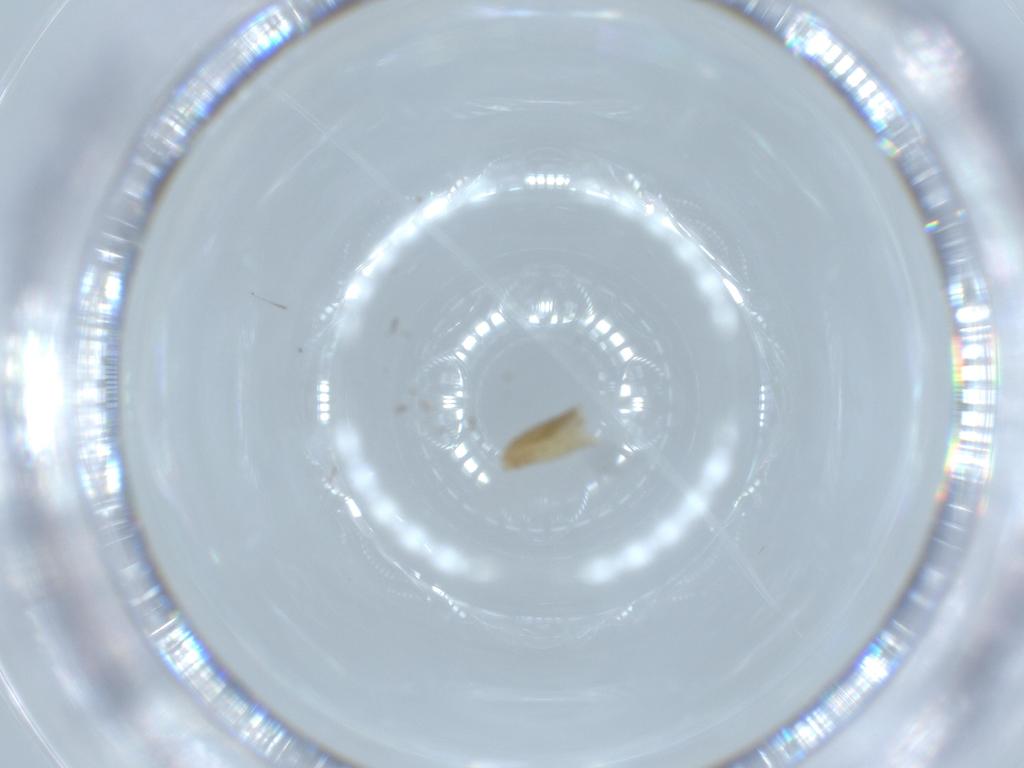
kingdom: Animalia
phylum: Arthropoda
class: Insecta
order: Diptera
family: Chironomidae
